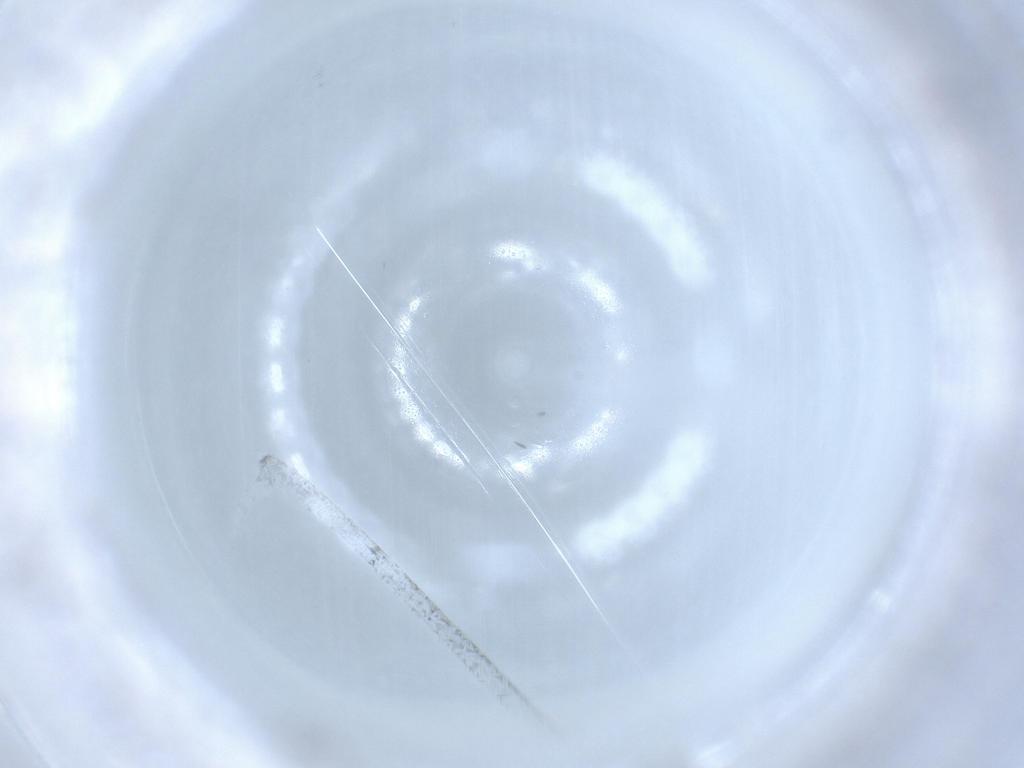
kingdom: Animalia
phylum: Arthropoda
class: Insecta
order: Diptera
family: Cecidomyiidae
